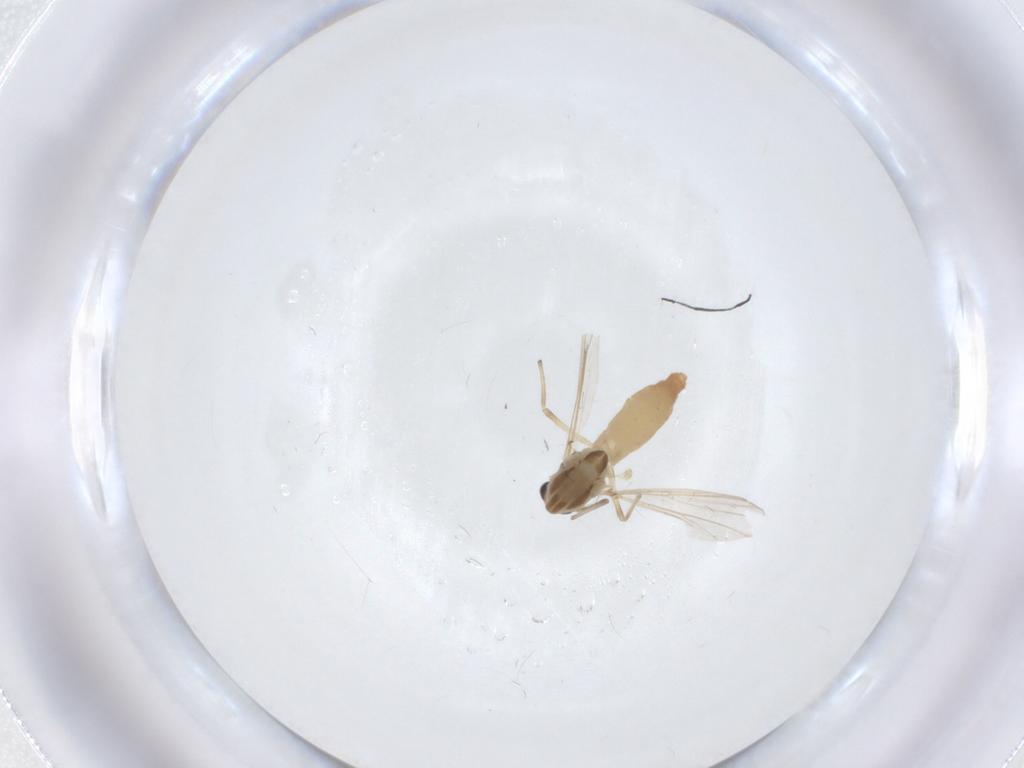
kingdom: Animalia
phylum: Arthropoda
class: Insecta
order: Diptera
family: Chironomidae
